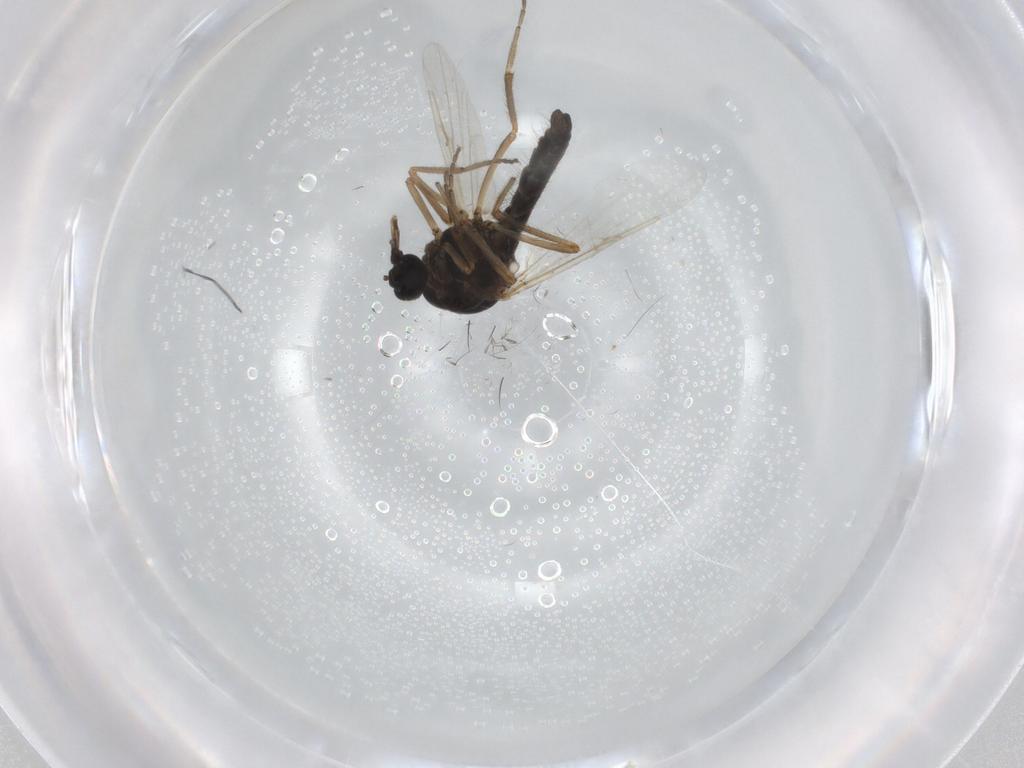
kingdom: Animalia
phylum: Arthropoda
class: Insecta
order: Diptera
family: Ceratopogonidae
